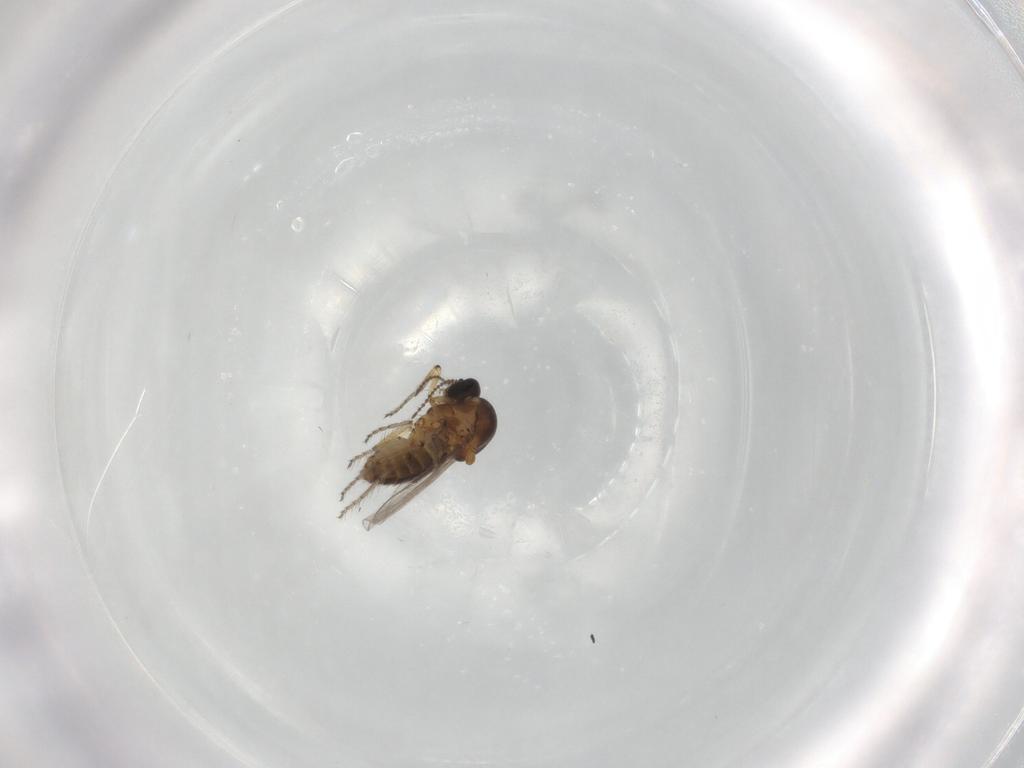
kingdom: Animalia
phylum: Arthropoda
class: Insecta
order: Diptera
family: Ceratopogonidae
